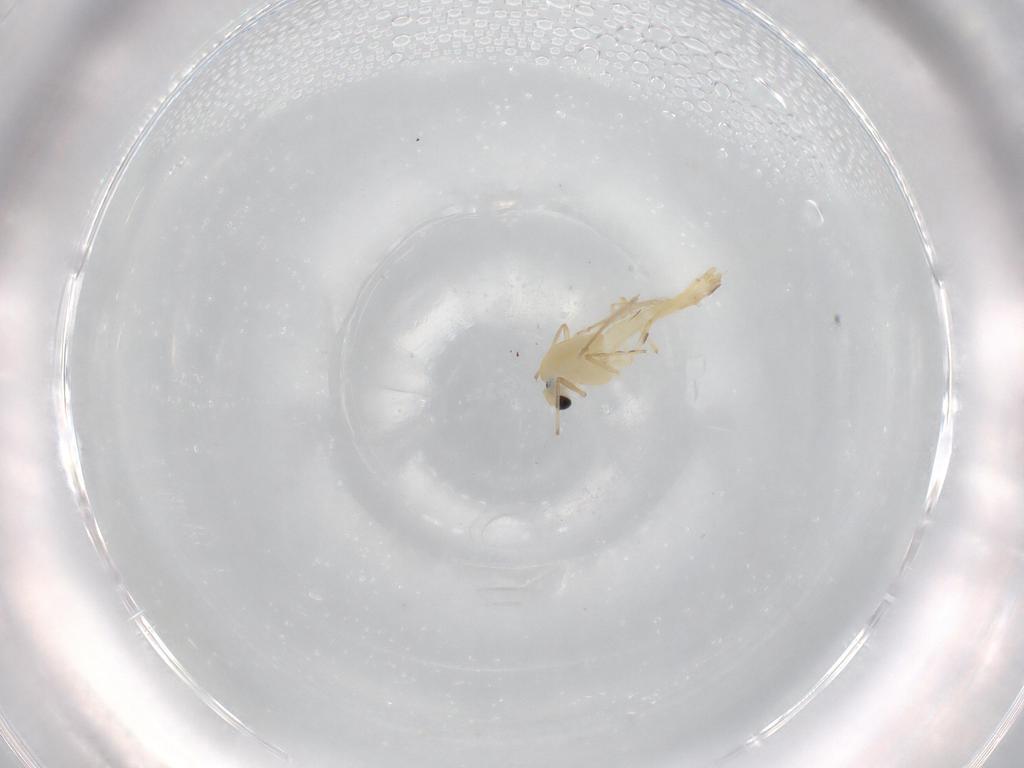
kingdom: Animalia
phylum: Arthropoda
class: Insecta
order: Diptera
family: Chironomidae
